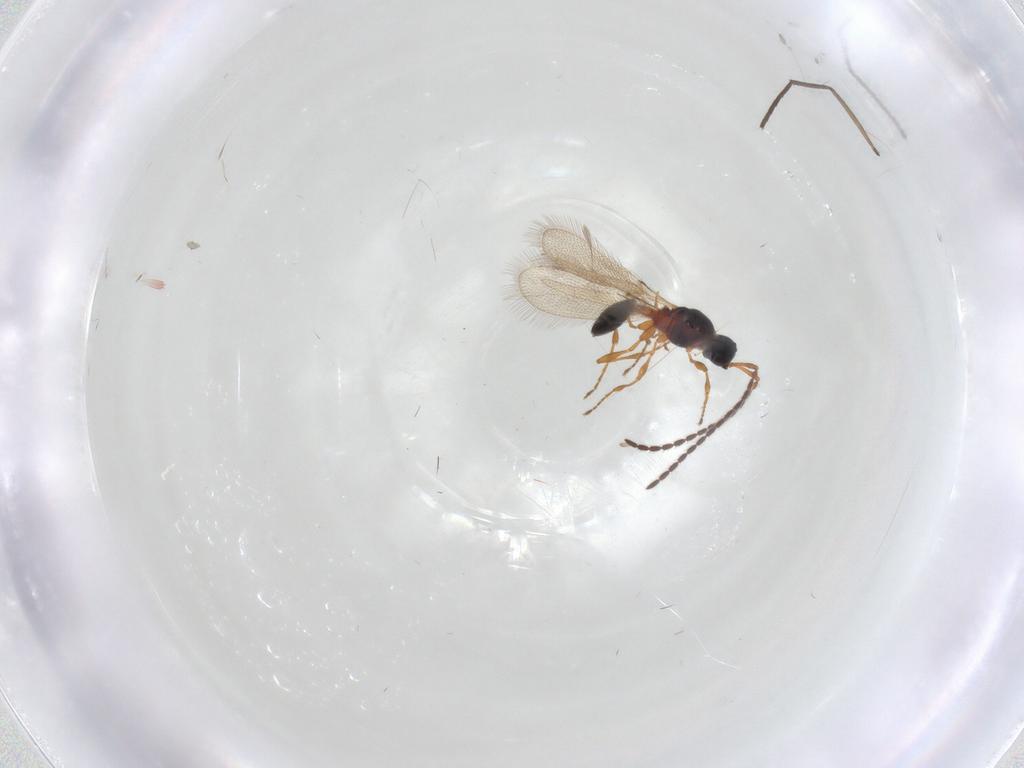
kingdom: Animalia
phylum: Arthropoda
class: Insecta
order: Hymenoptera
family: Diapriidae
